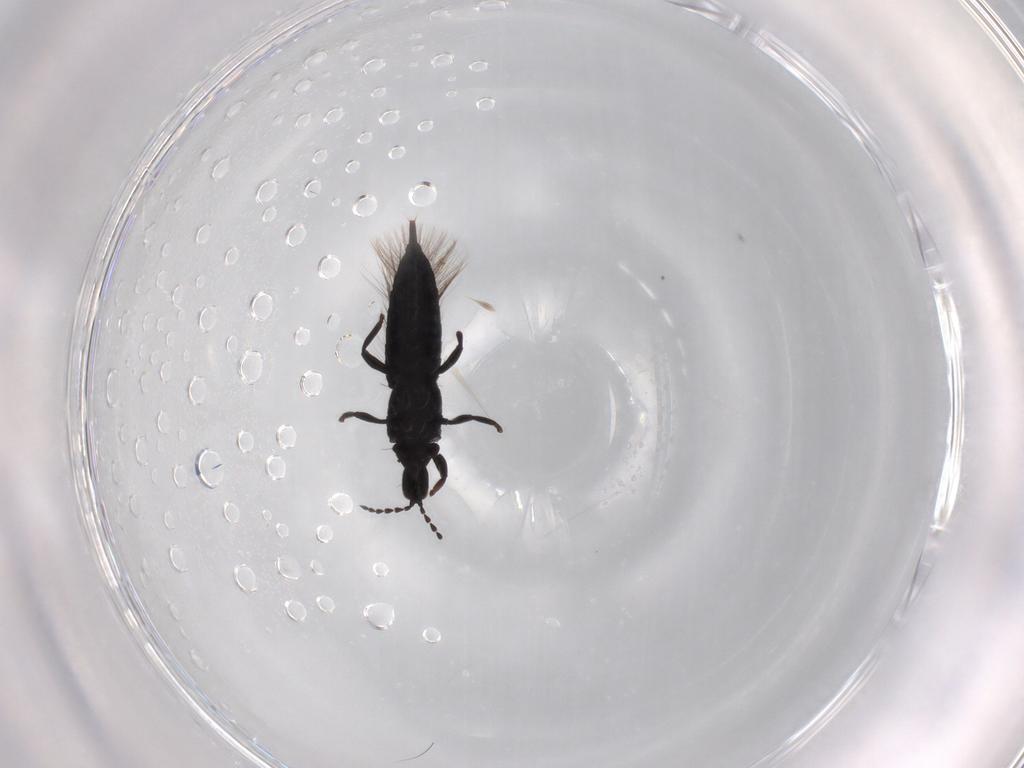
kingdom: Animalia
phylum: Arthropoda
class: Insecta
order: Thysanoptera
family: Phlaeothripidae
